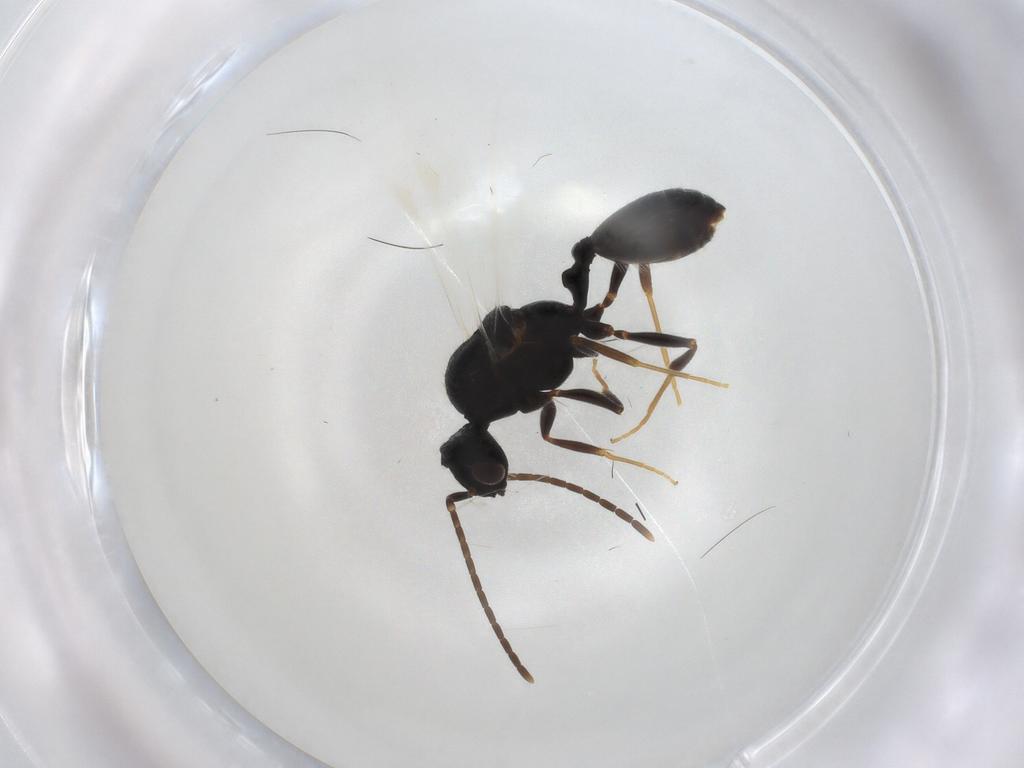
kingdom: Animalia
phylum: Arthropoda
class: Insecta
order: Hymenoptera
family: Formicidae
